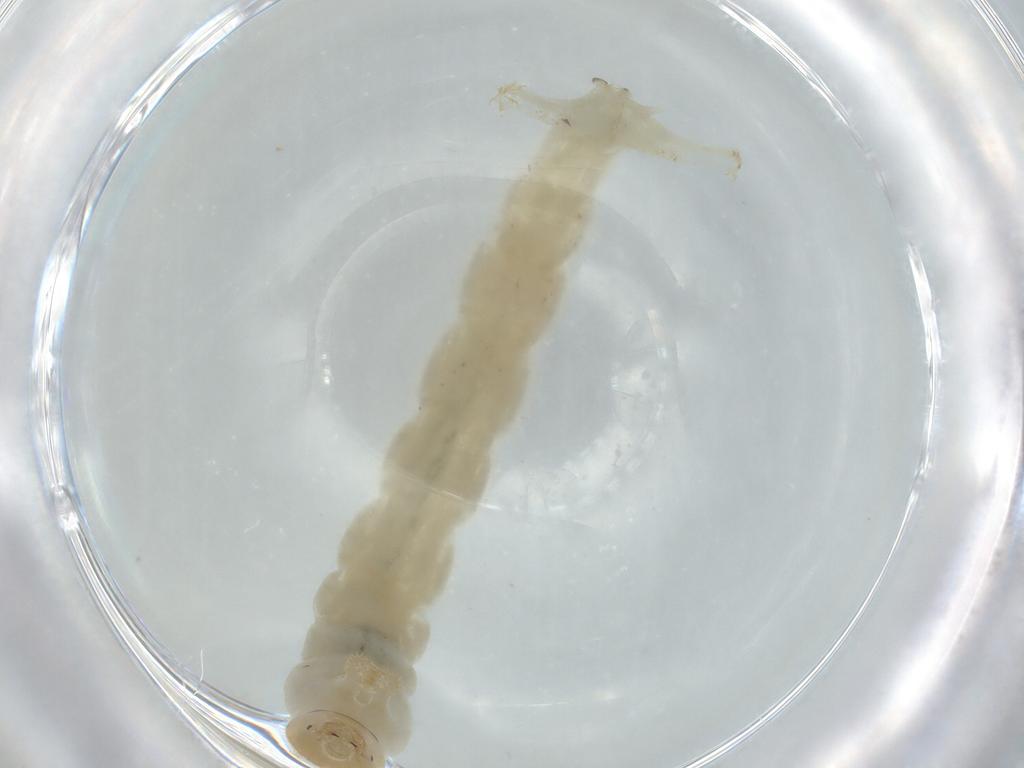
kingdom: Animalia
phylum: Arthropoda
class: Insecta
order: Diptera
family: Chironomidae
